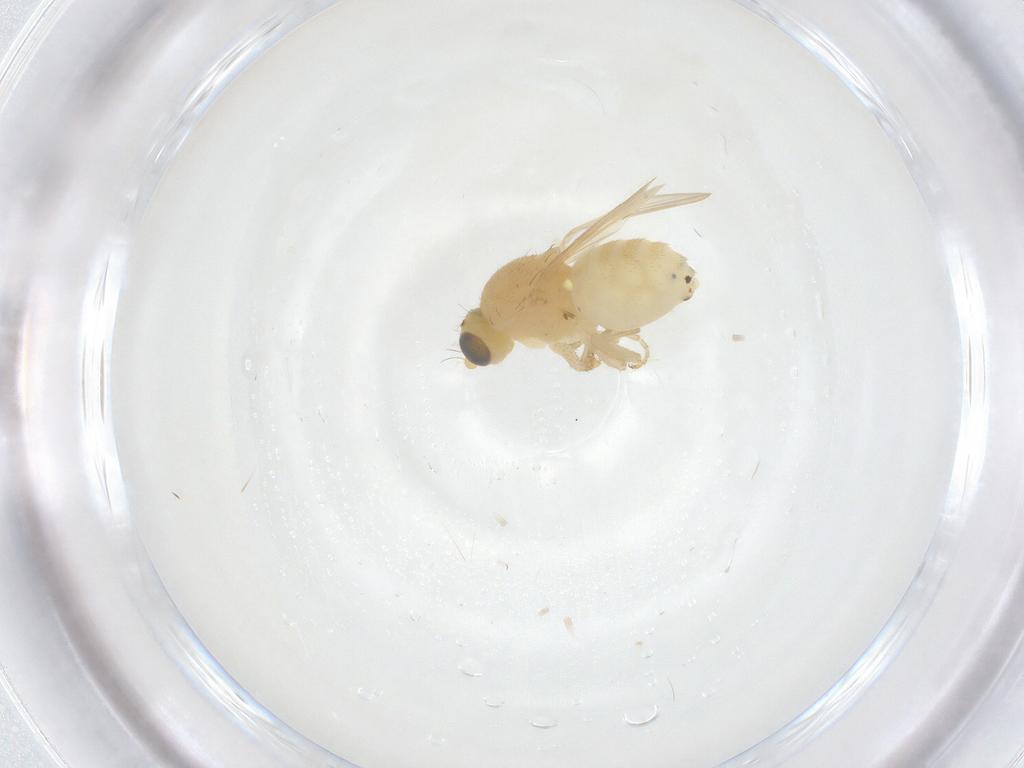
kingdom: Animalia
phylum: Arthropoda
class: Insecta
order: Diptera
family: Chyromyidae
